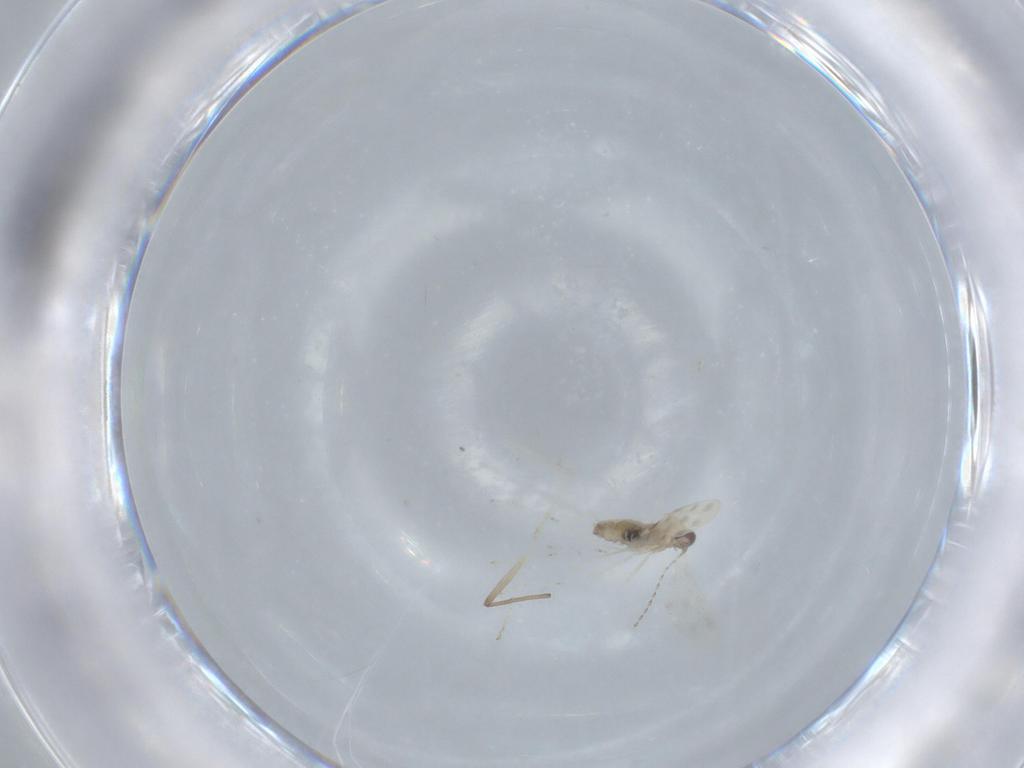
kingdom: Animalia
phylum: Arthropoda
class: Insecta
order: Diptera
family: Cecidomyiidae
